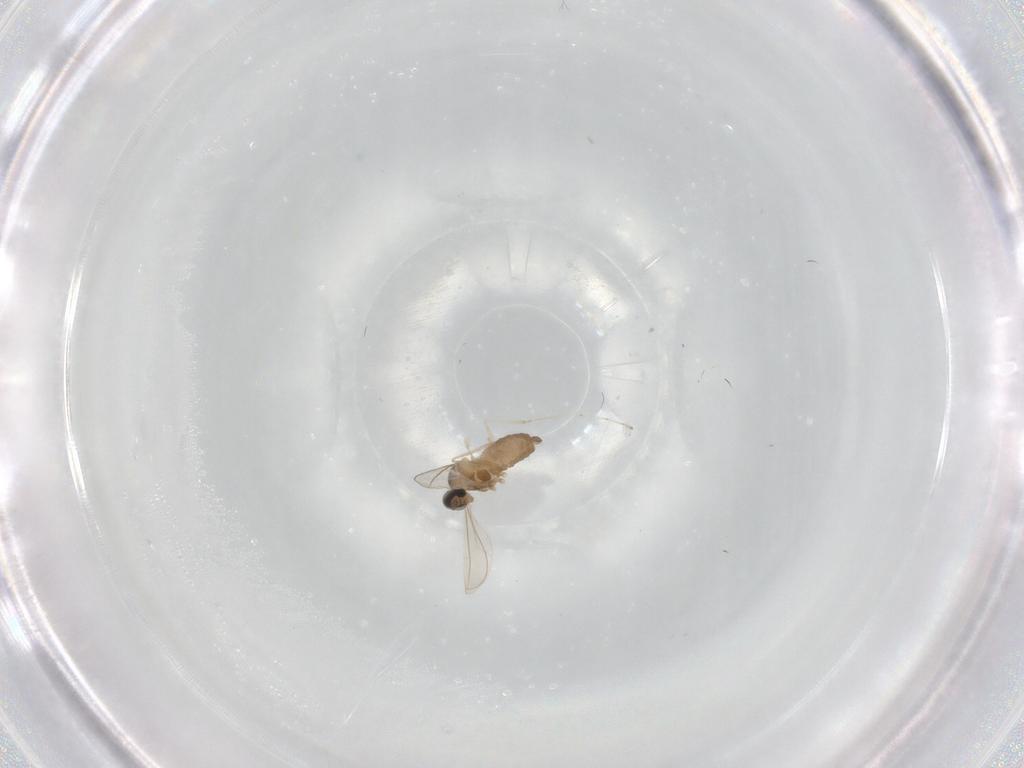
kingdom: Animalia
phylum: Arthropoda
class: Insecta
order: Diptera
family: Cecidomyiidae
